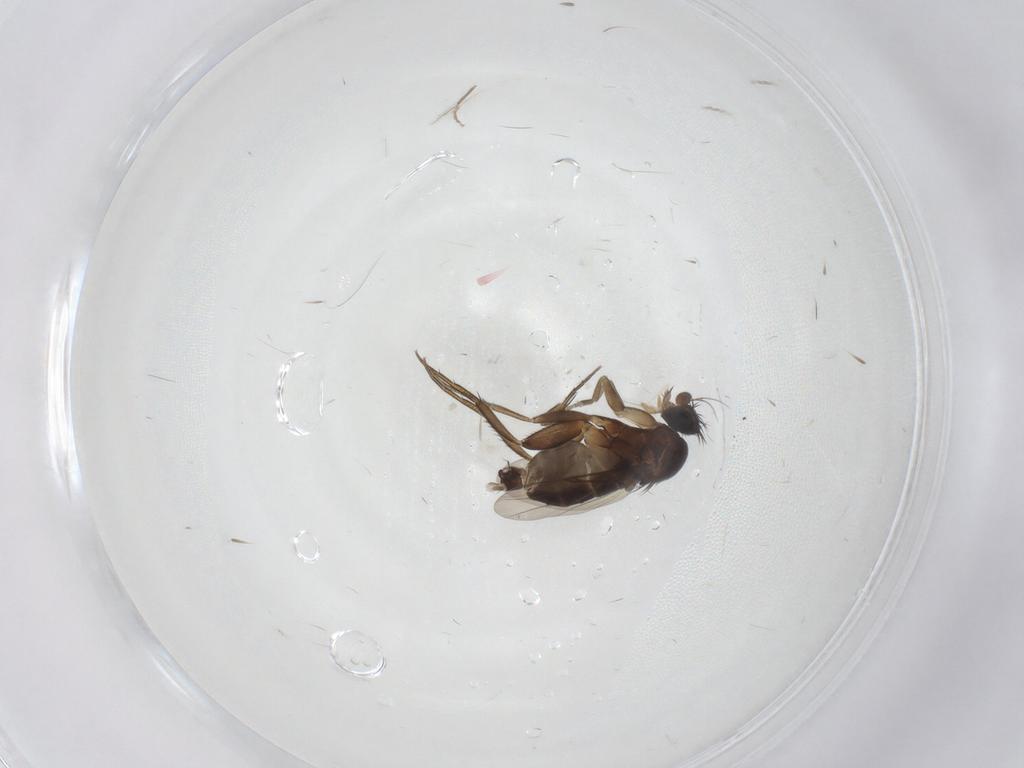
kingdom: Animalia
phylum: Arthropoda
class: Insecta
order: Diptera
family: Phoridae
